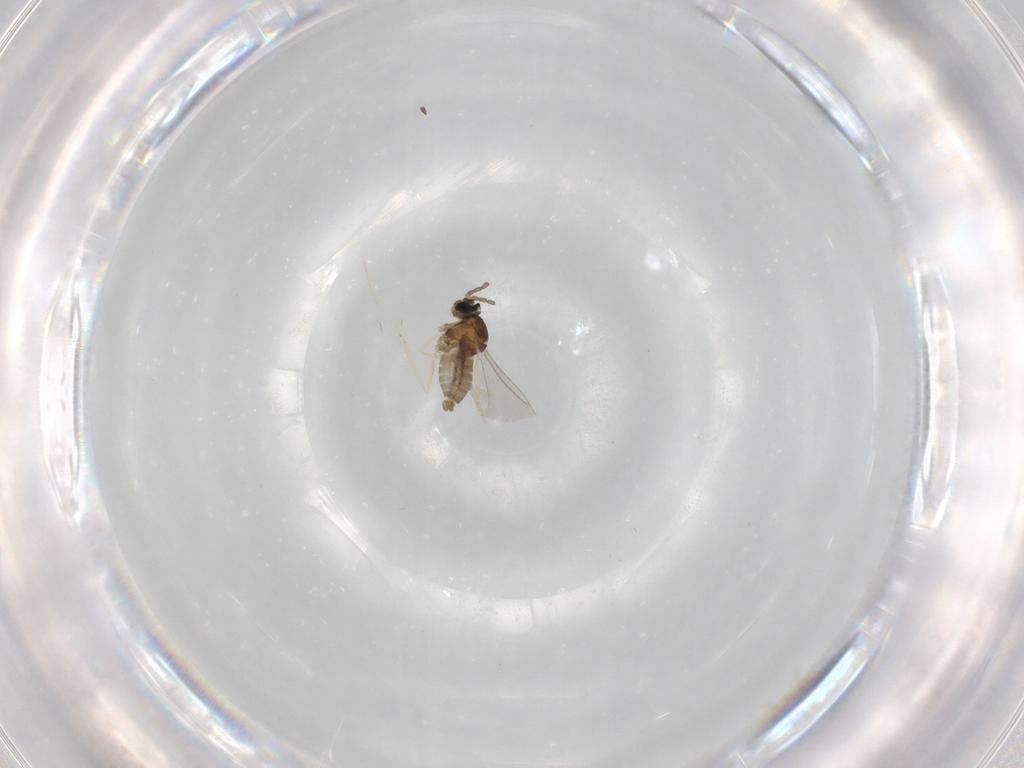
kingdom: Animalia
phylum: Arthropoda
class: Insecta
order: Diptera
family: Cecidomyiidae
